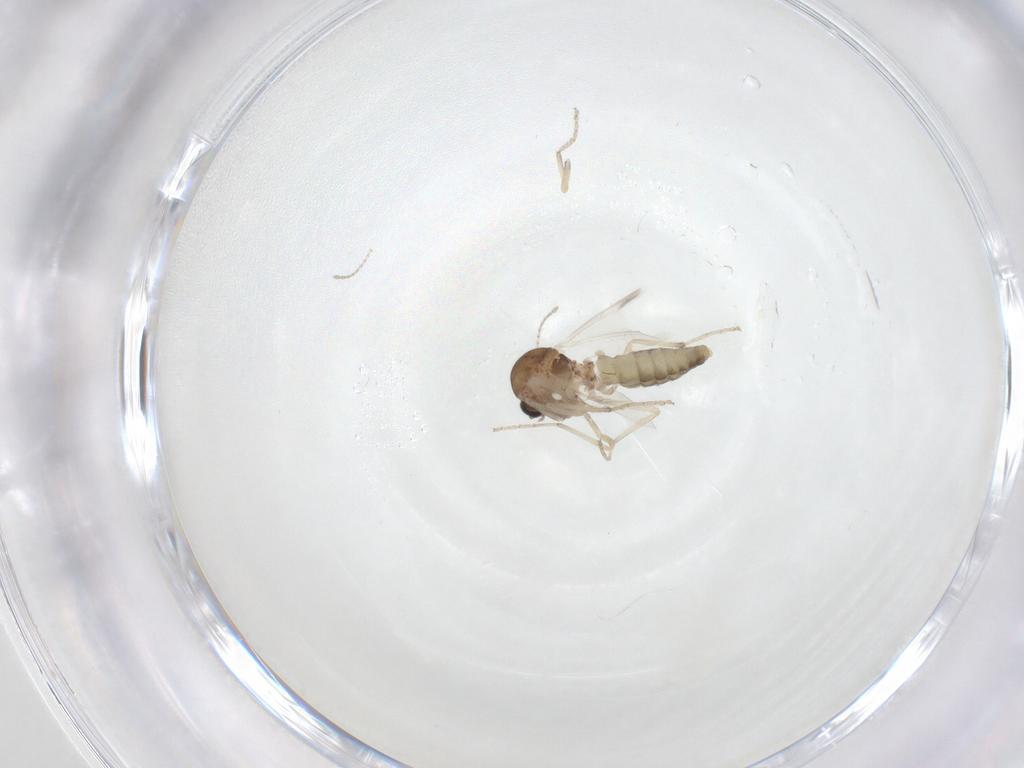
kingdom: Animalia
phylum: Arthropoda
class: Insecta
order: Diptera
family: Ceratopogonidae
